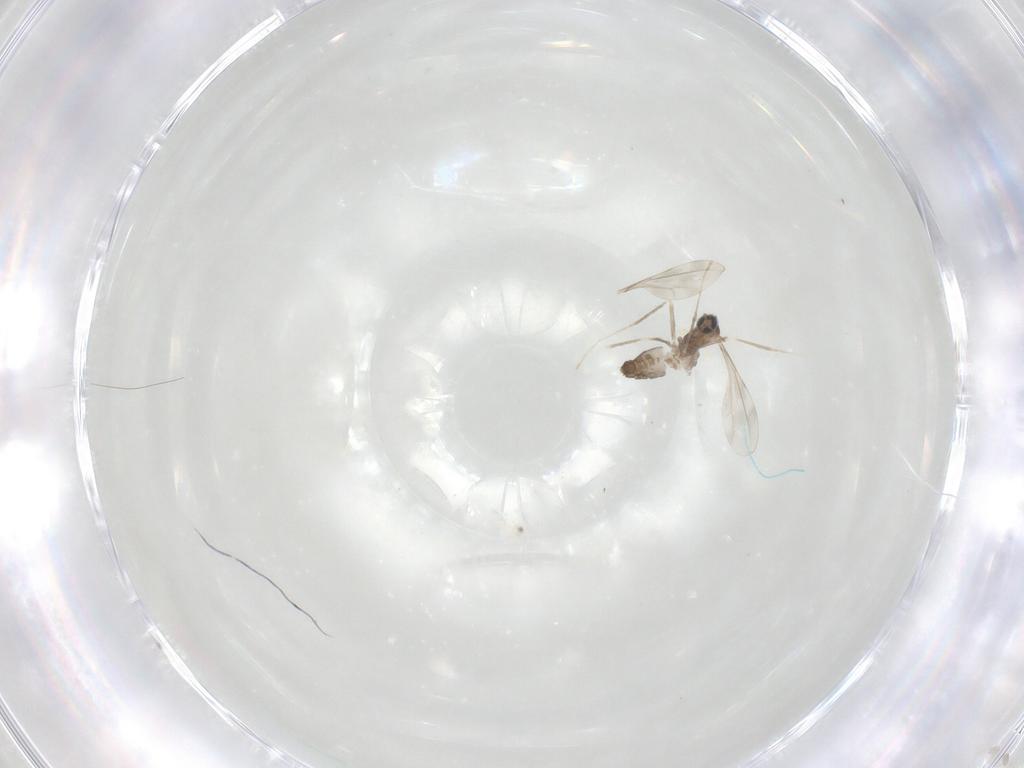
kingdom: Animalia
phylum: Arthropoda
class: Insecta
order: Diptera
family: Cecidomyiidae
